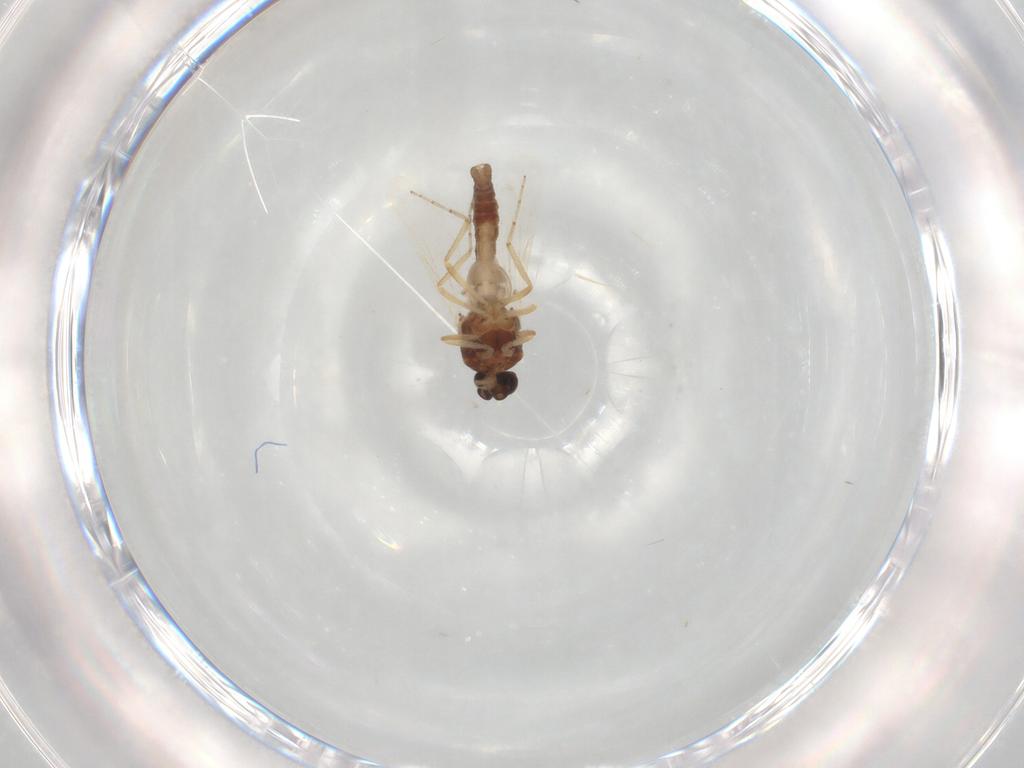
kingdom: Animalia
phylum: Arthropoda
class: Insecta
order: Diptera
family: Ceratopogonidae
